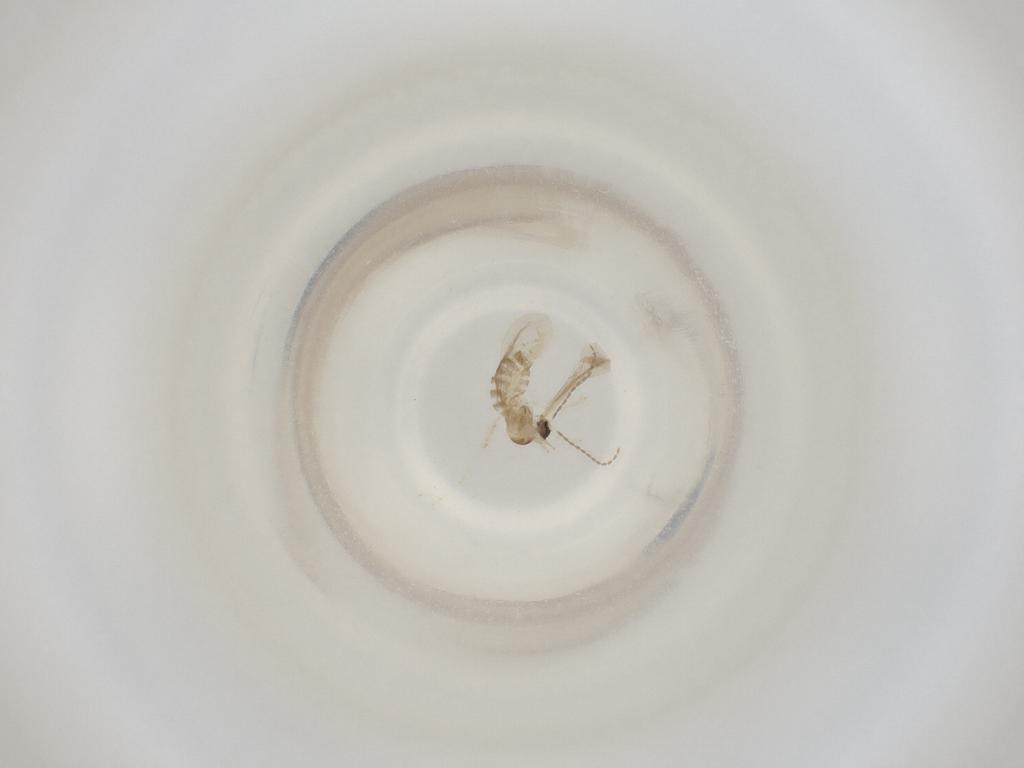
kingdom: Animalia
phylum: Arthropoda
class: Insecta
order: Diptera
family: Cecidomyiidae
